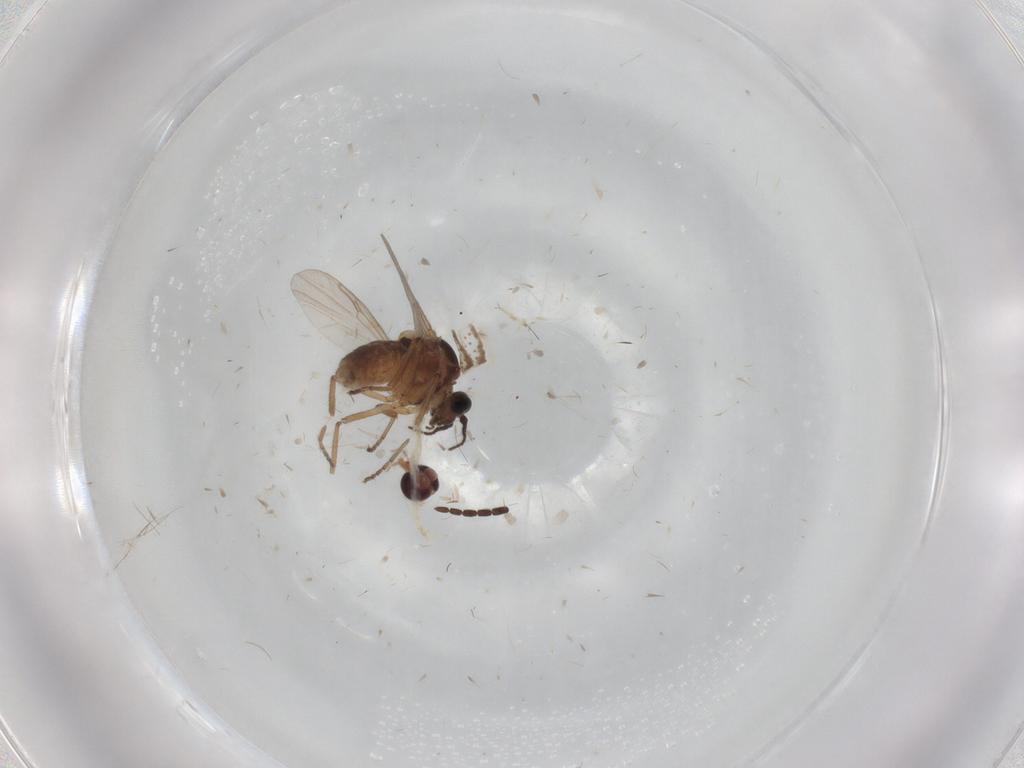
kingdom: Animalia
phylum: Arthropoda
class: Insecta
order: Diptera
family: Ceratopogonidae
